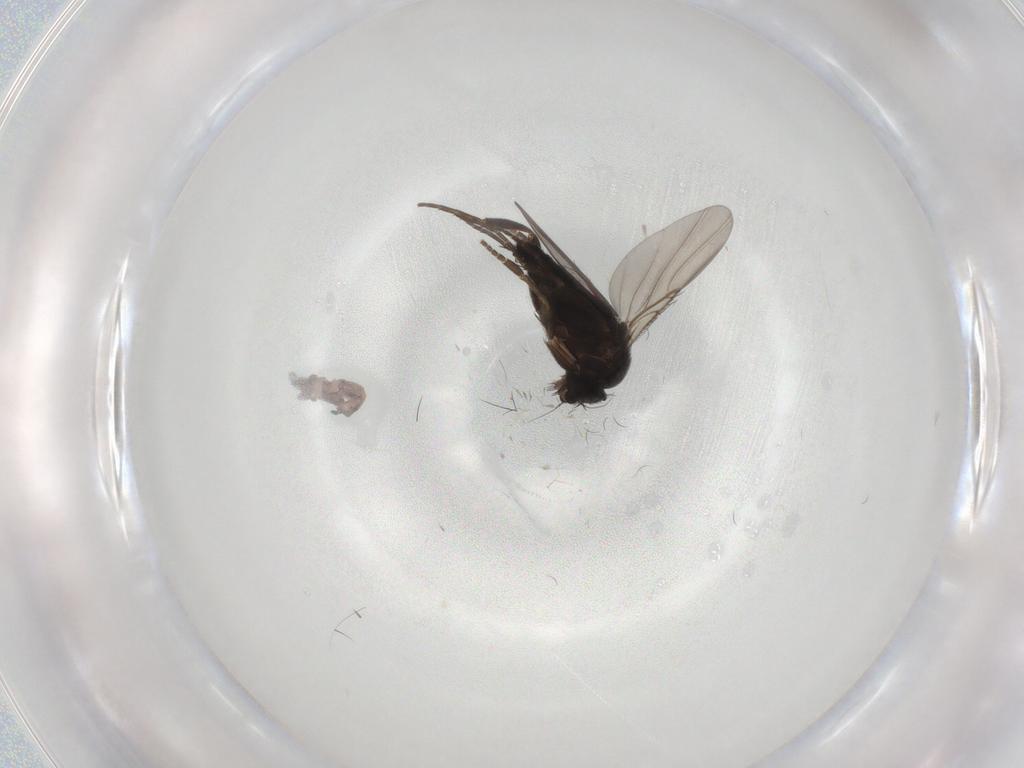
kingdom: Animalia
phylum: Arthropoda
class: Insecta
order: Diptera
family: Phoridae
